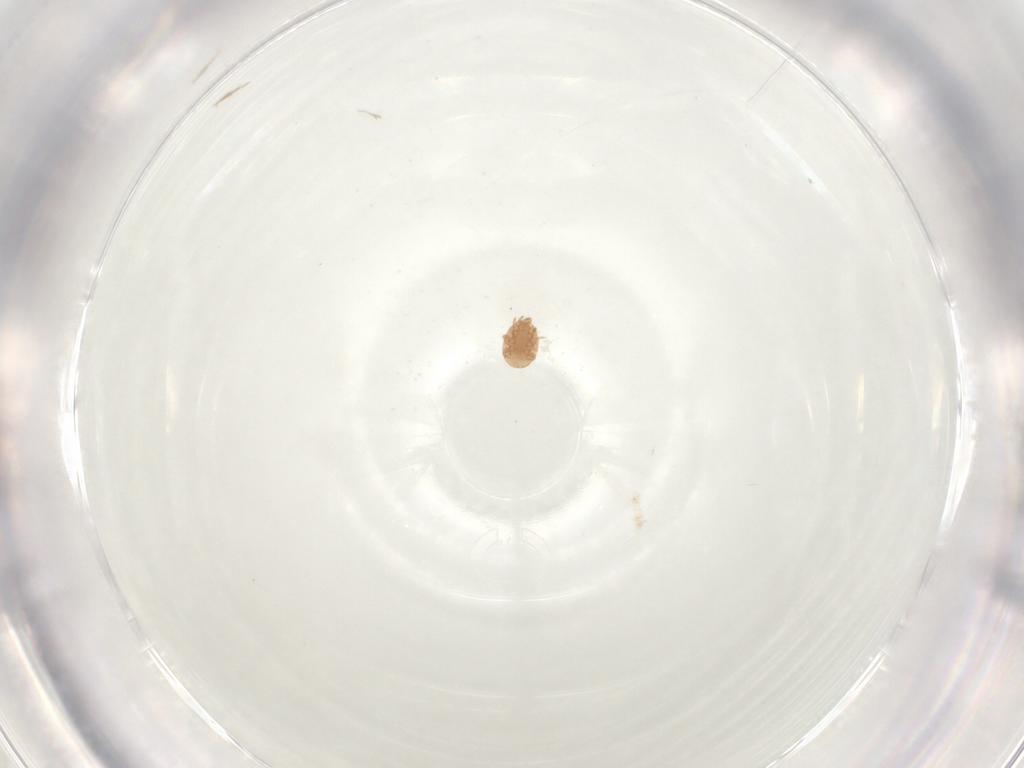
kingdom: Animalia
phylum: Arthropoda
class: Arachnida
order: Mesostigmata
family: Trematuridae
